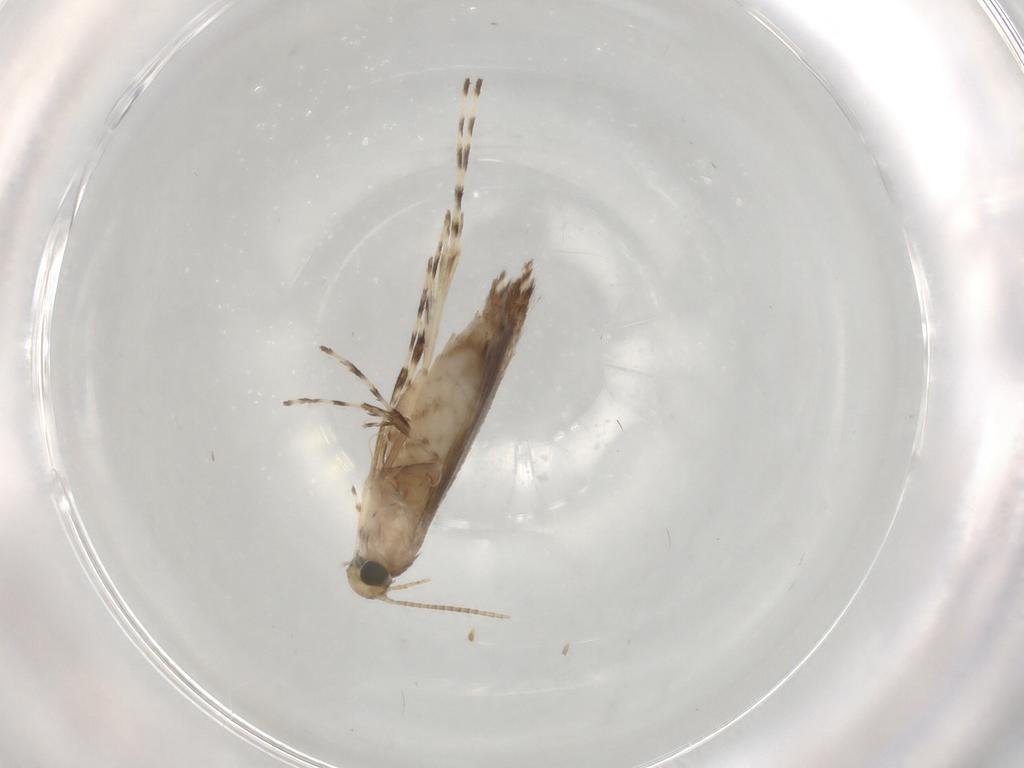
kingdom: Animalia
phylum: Arthropoda
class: Insecta
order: Lepidoptera
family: Gracillariidae
